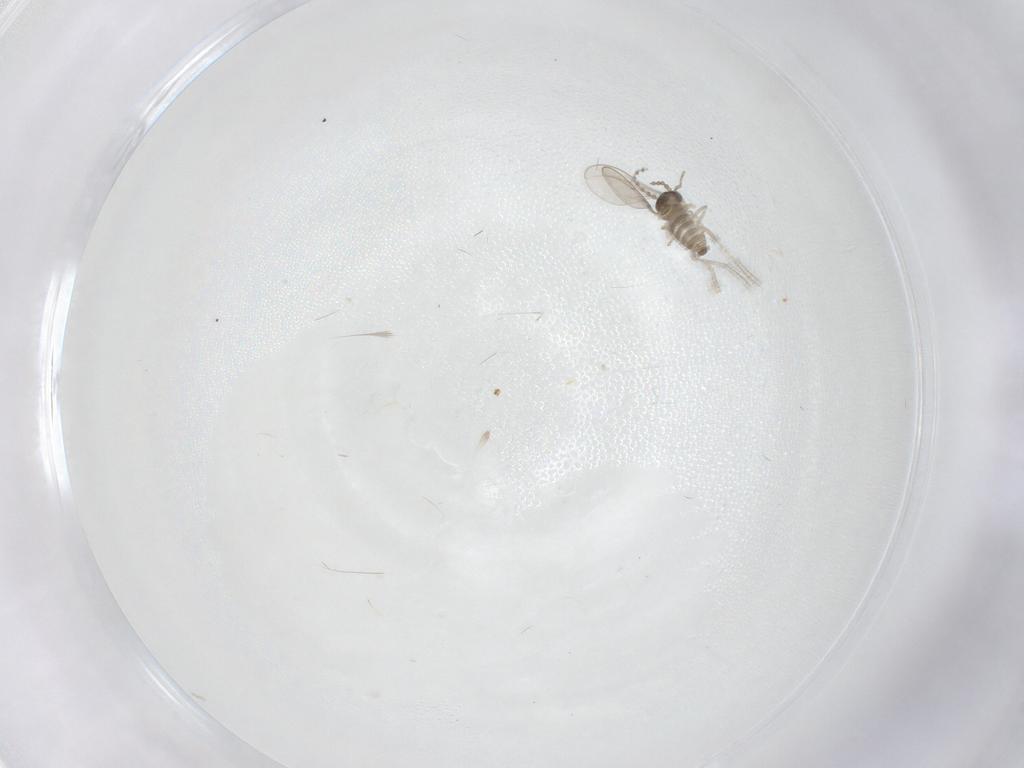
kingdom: Animalia
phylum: Arthropoda
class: Insecta
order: Diptera
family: Cecidomyiidae
